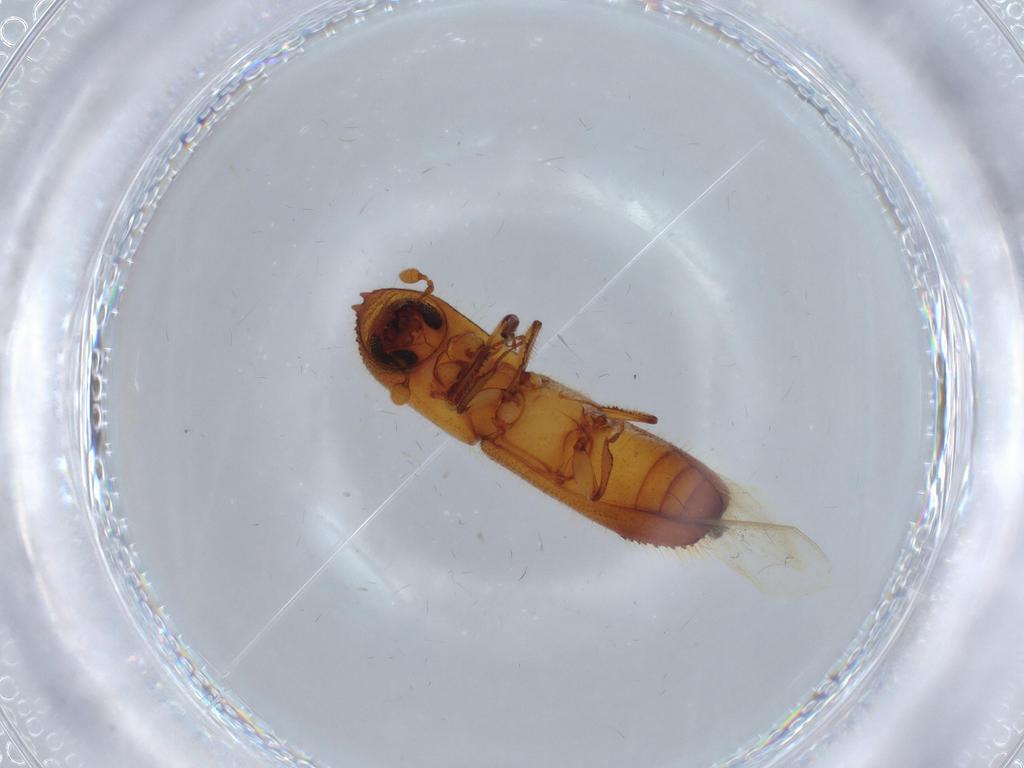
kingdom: Animalia
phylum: Arthropoda
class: Insecta
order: Coleoptera
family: Curculionidae
